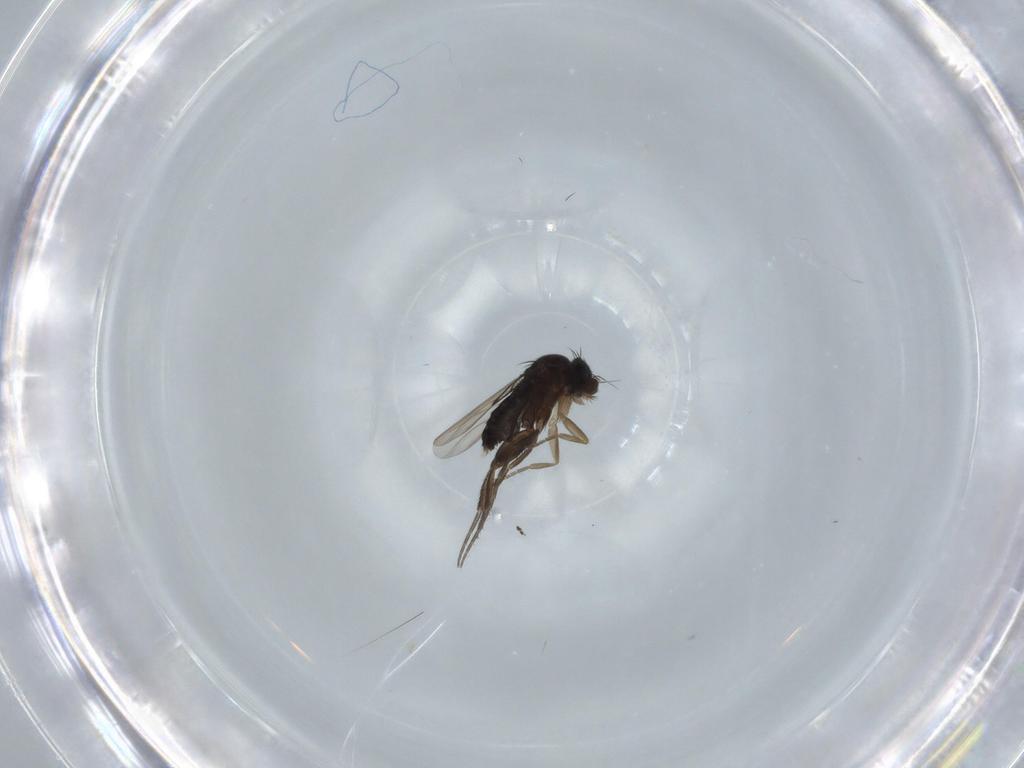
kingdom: Animalia
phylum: Arthropoda
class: Insecta
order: Diptera
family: Phoridae
